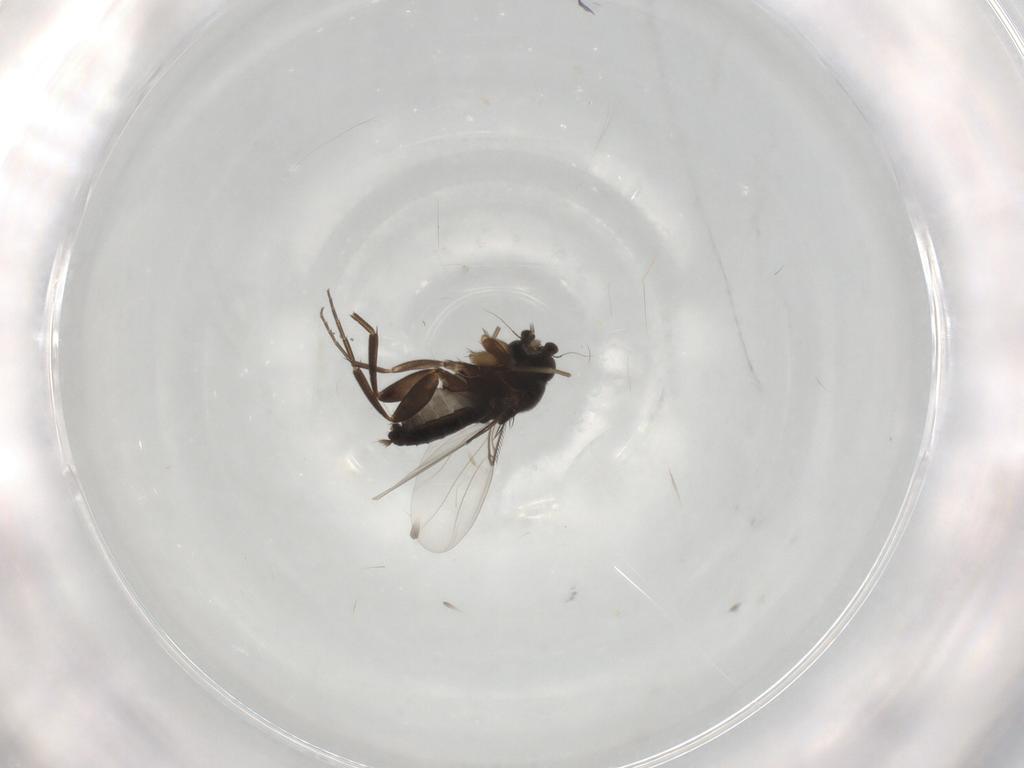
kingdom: Animalia
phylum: Arthropoda
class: Insecta
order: Diptera
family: Phoridae
